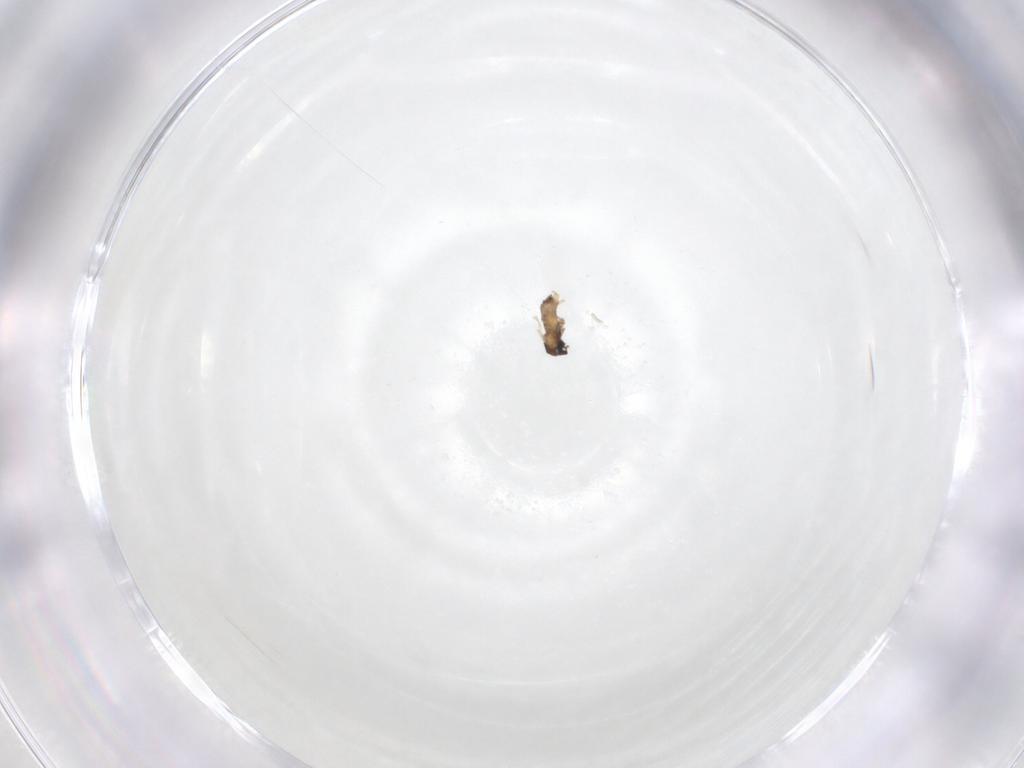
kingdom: Animalia
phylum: Arthropoda
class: Insecta
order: Diptera
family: Cecidomyiidae
